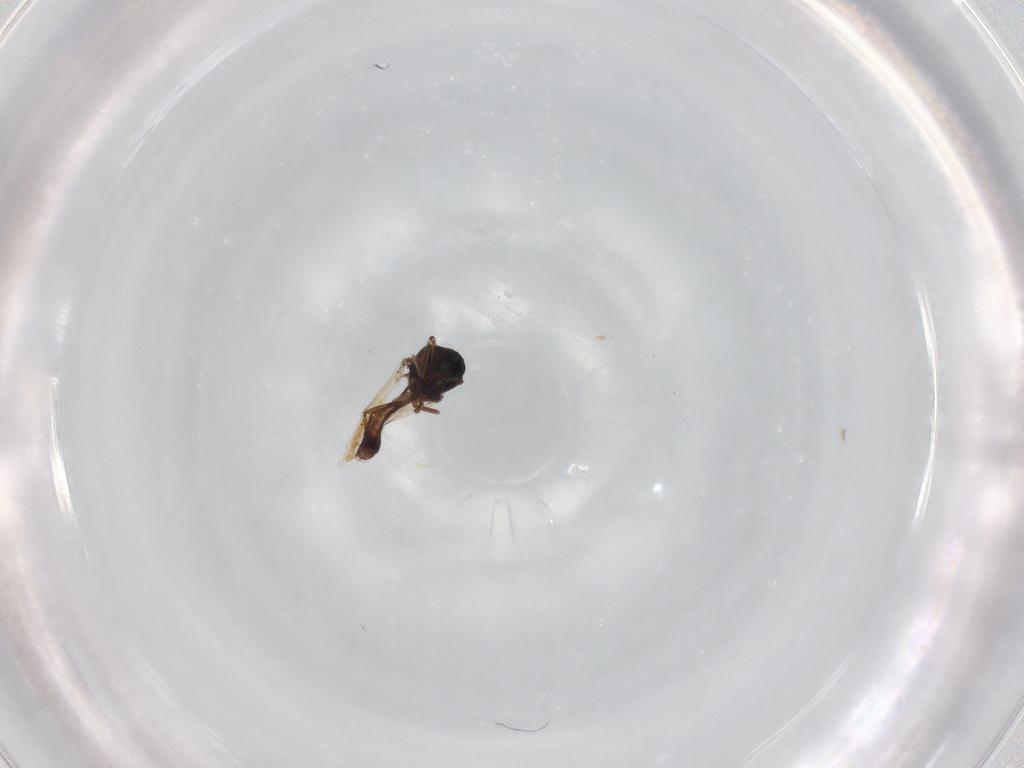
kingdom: Animalia
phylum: Arthropoda
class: Insecta
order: Diptera
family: Ceratopogonidae
